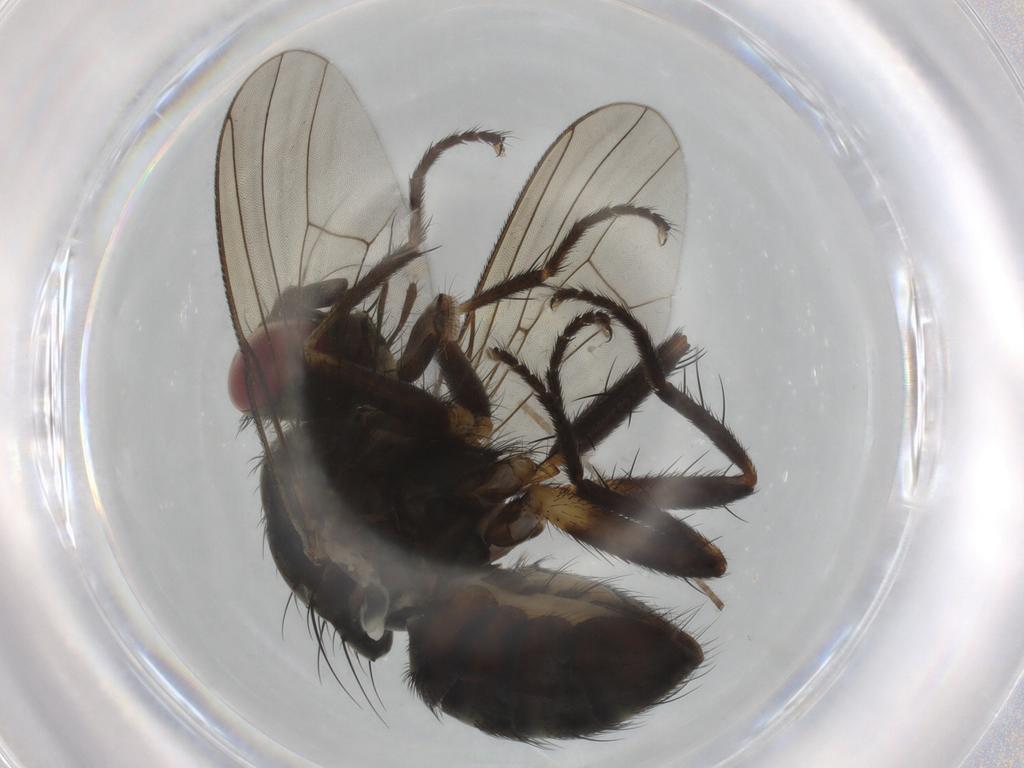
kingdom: Animalia
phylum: Arthropoda
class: Insecta
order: Diptera
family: Muscidae
